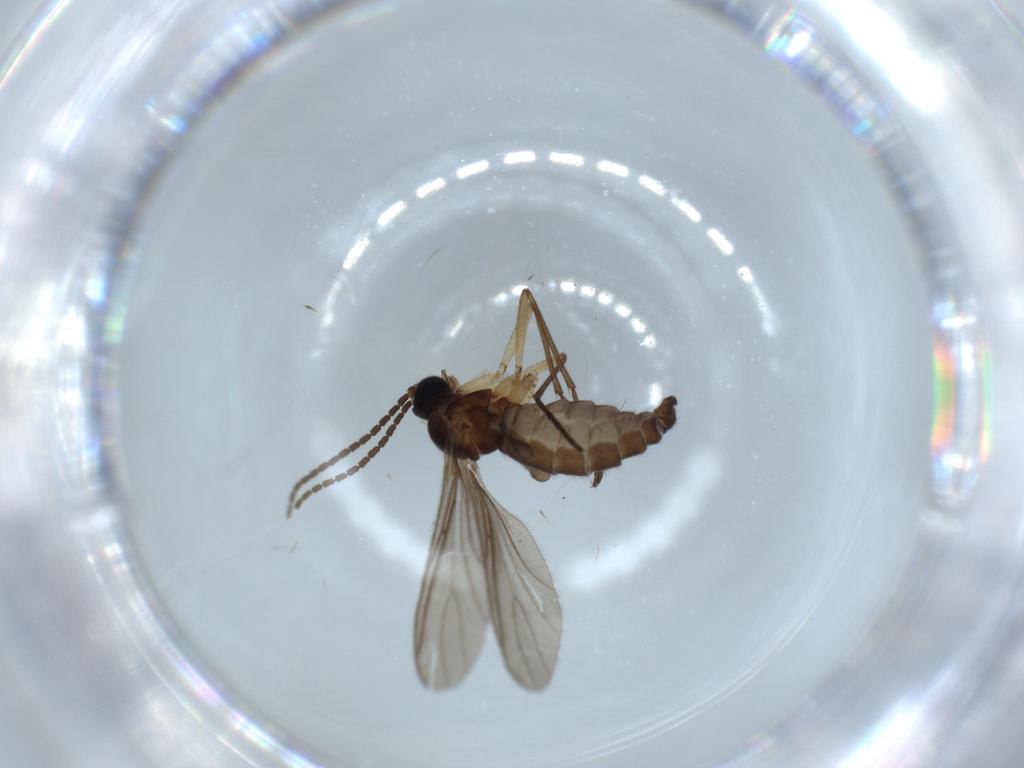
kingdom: Animalia
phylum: Arthropoda
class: Insecta
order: Diptera
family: Sciaridae
